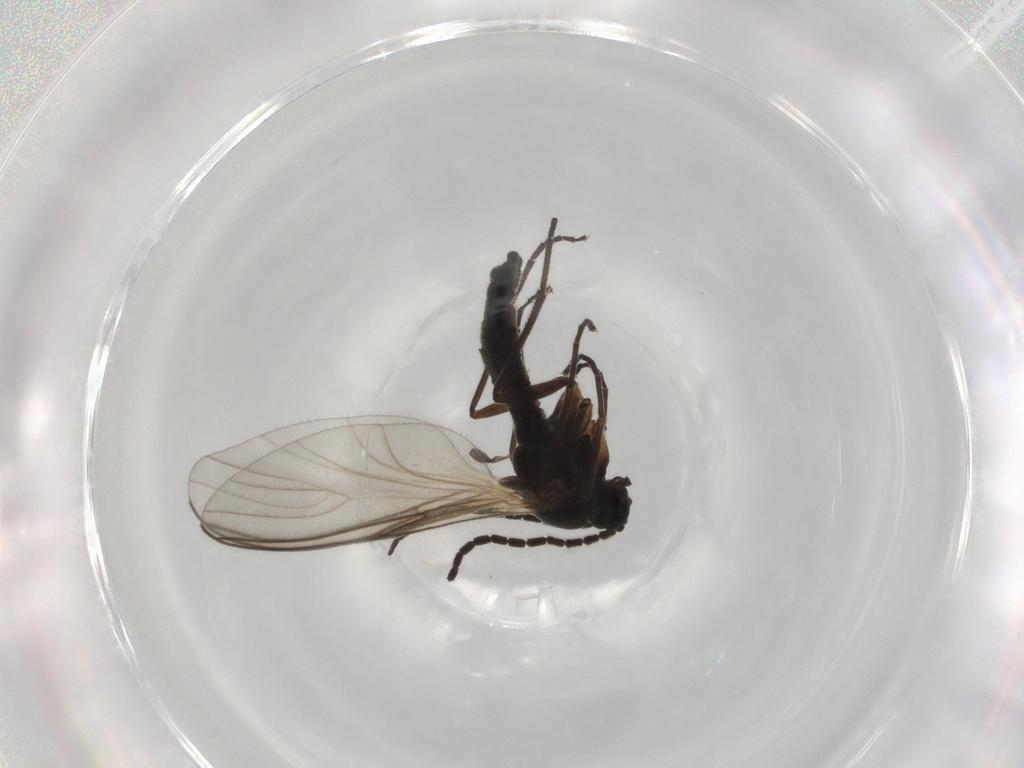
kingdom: Animalia
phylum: Arthropoda
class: Insecta
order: Diptera
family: Chironomidae
